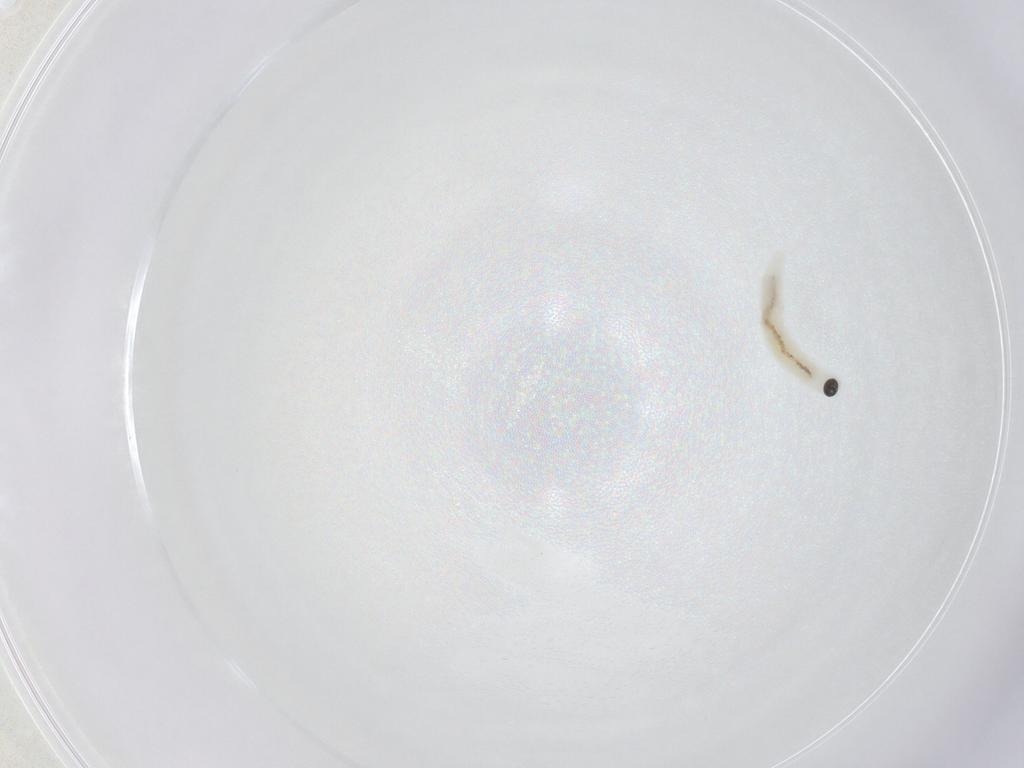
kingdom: Animalia
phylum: Arthropoda
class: Insecta
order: Diptera
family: Sciaridae
